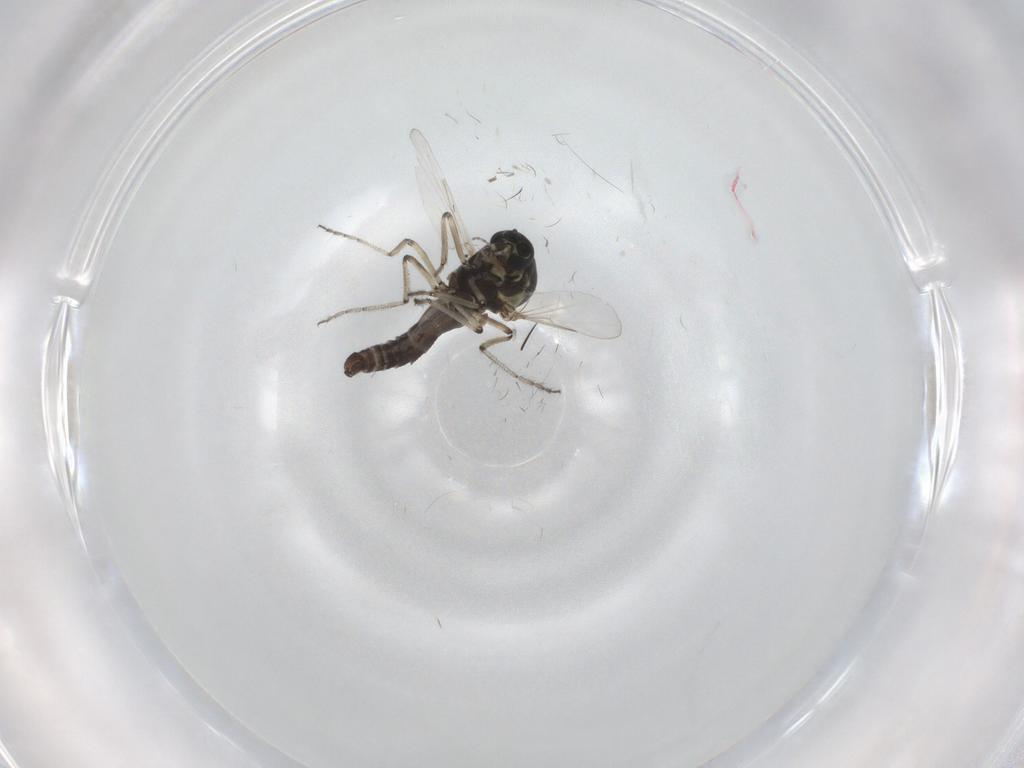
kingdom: Animalia
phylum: Arthropoda
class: Insecta
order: Diptera
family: Ceratopogonidae
